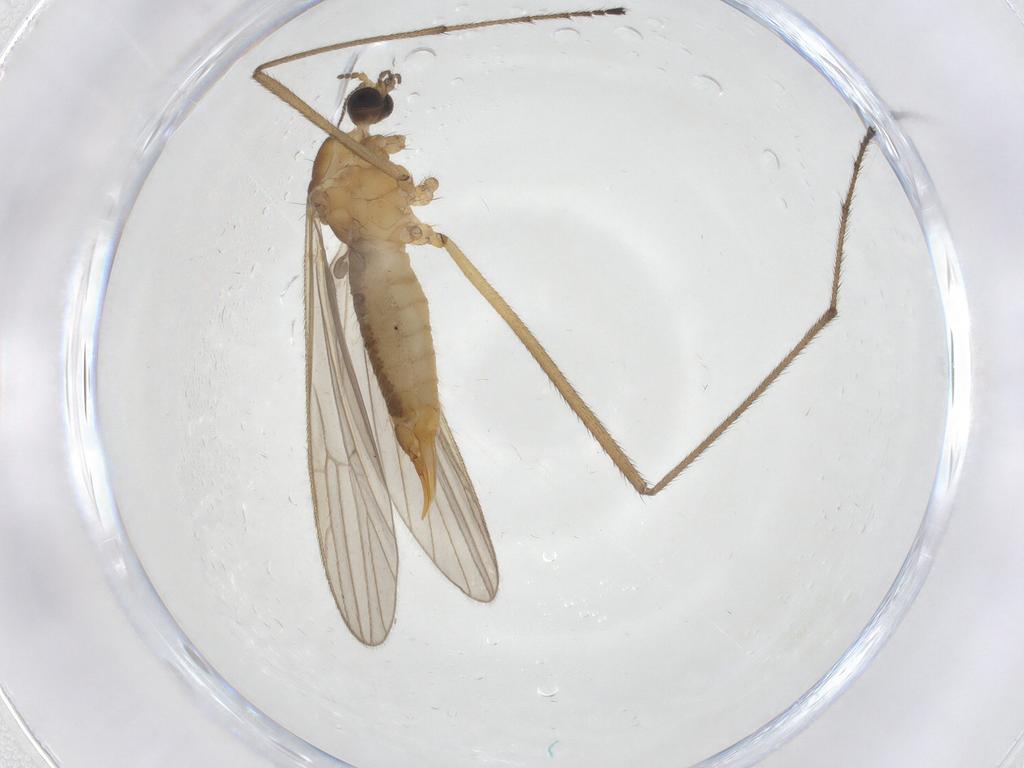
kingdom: Animalia
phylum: Arthropoda
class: Insecta
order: Diptera
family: Limoniidae
